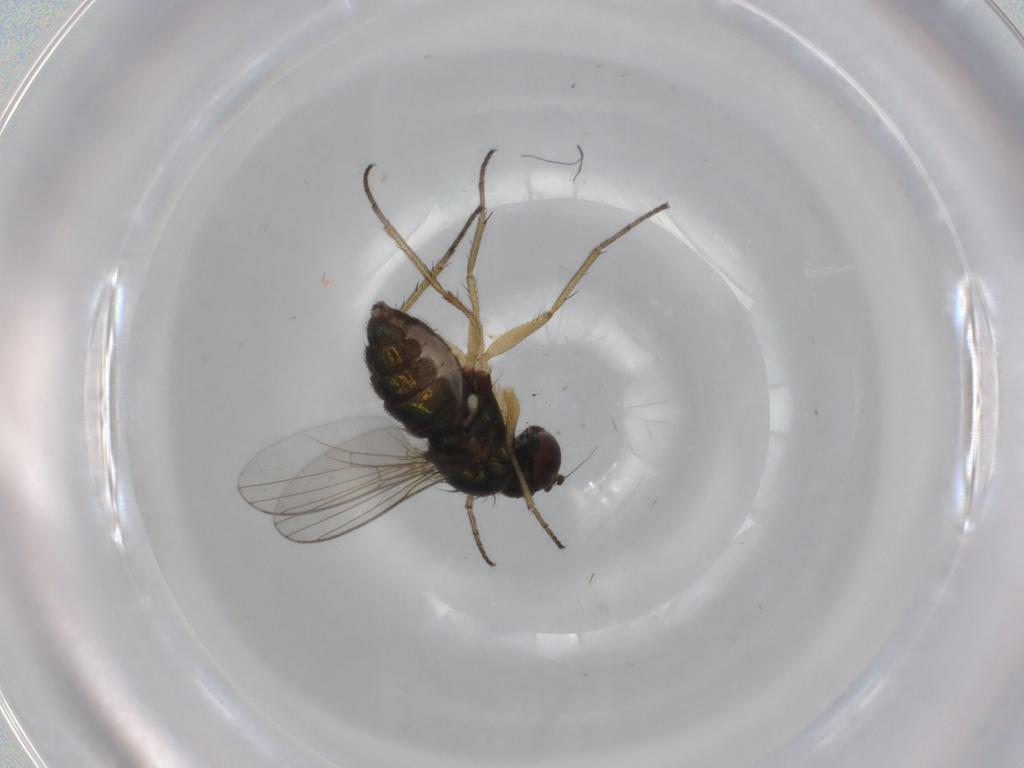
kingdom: Animalia
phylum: Arthropoda
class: Insecta
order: Diptera
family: Dolichopodidae
